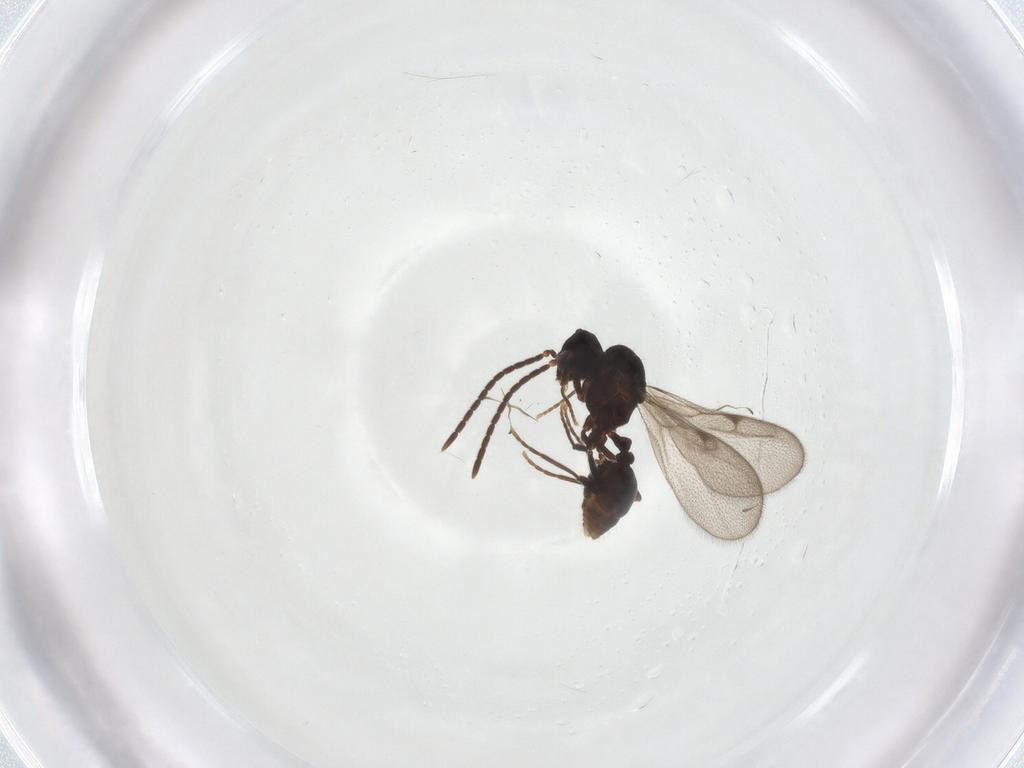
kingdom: Animalia
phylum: Arthropoda
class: Insecta
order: Hymenoptera
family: Formicidae
